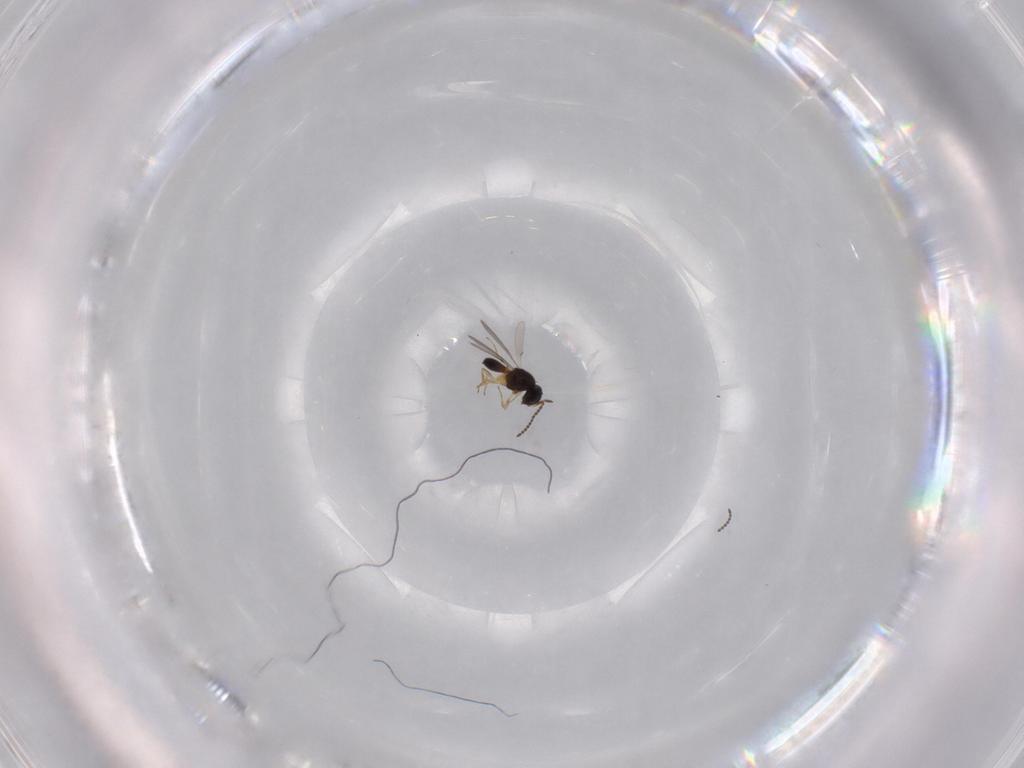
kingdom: Animalia
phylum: Arthropoda
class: Insecta
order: Hymenoptera
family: Scelionidae
